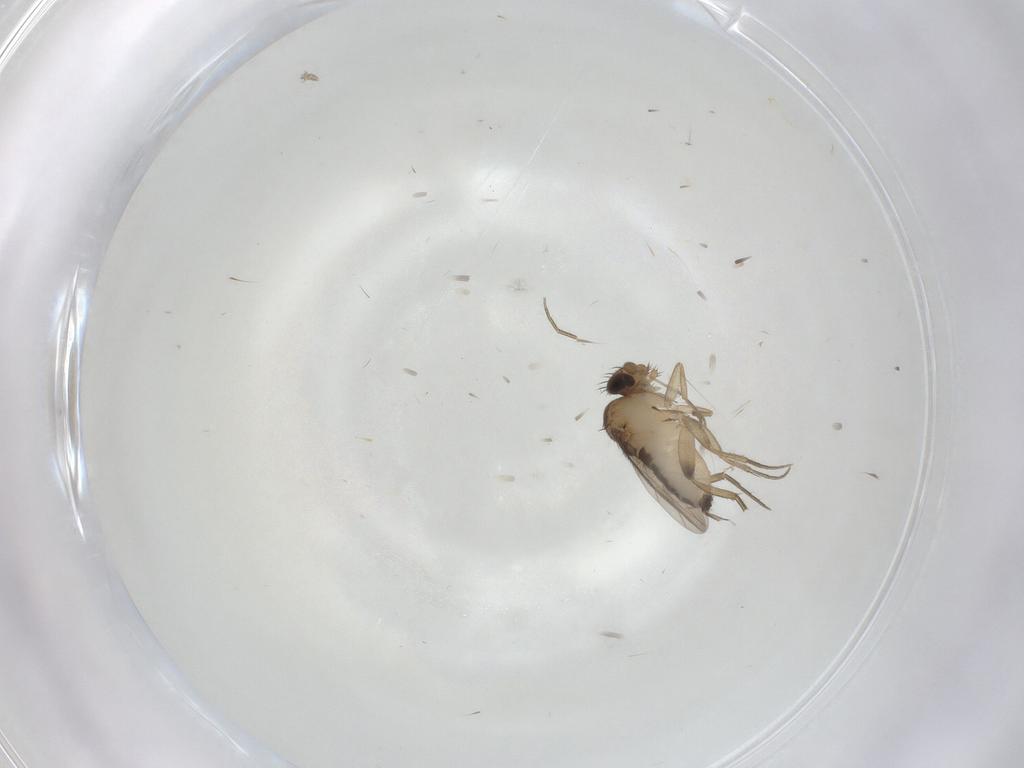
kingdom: Animalia
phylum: Arthropoda
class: Insecta
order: Diptera
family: Phoridae
